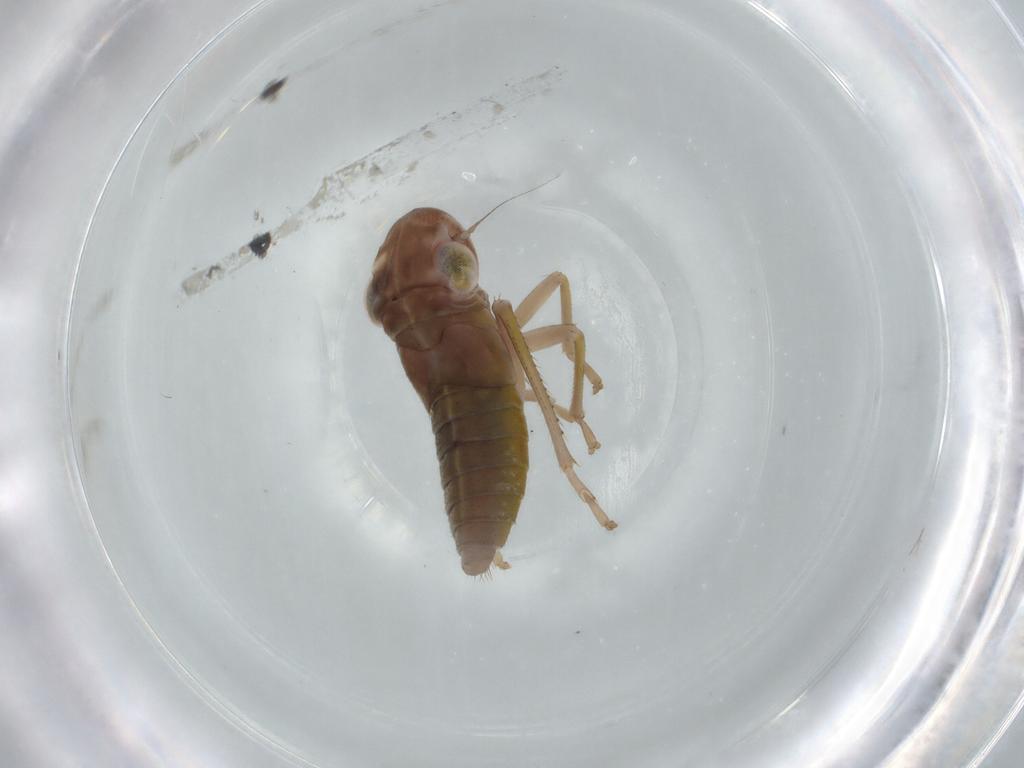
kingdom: Animalia
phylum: Arthropoda
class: Insecta
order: Hemiptera
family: Cicadellidae
